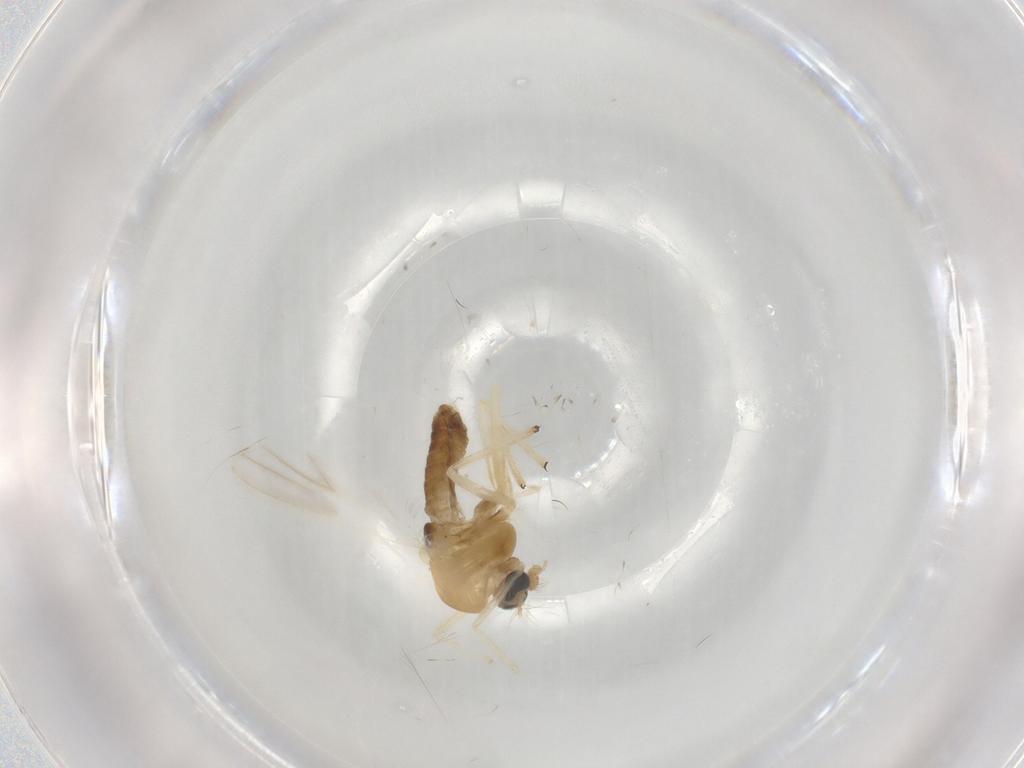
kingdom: Animalia
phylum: Arthropoda
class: Insecta
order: Diptera
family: Chironomidae
